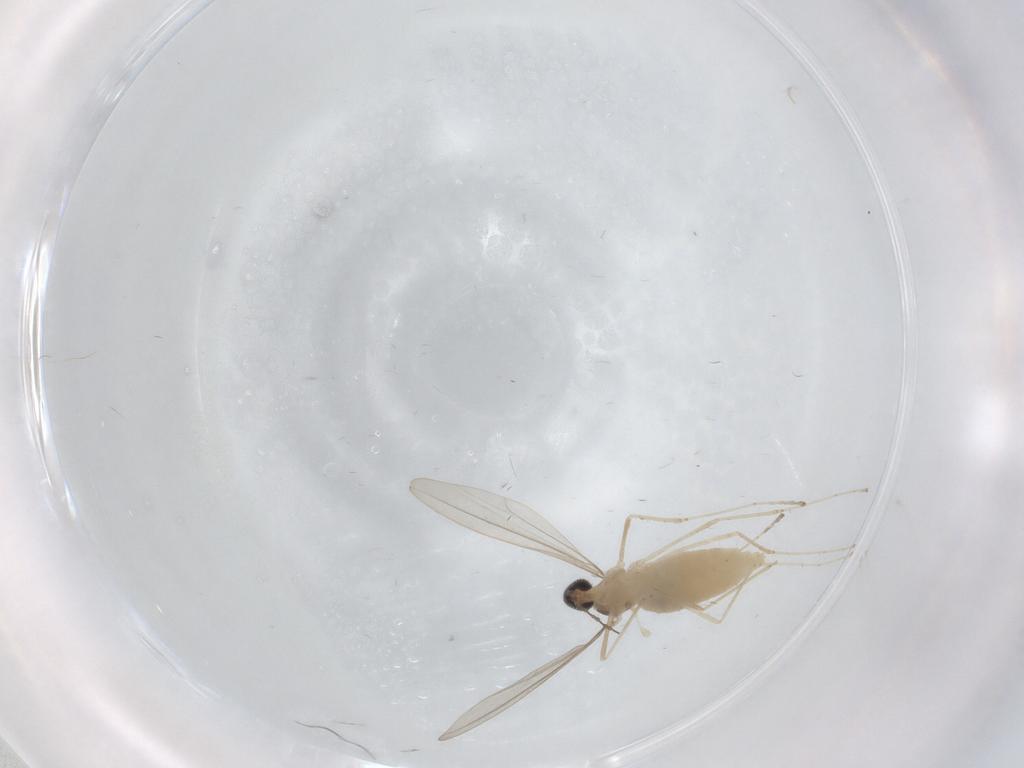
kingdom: Animalia
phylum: Arthropoda
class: Insecta
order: Diptera
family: Cecidomyiidae
